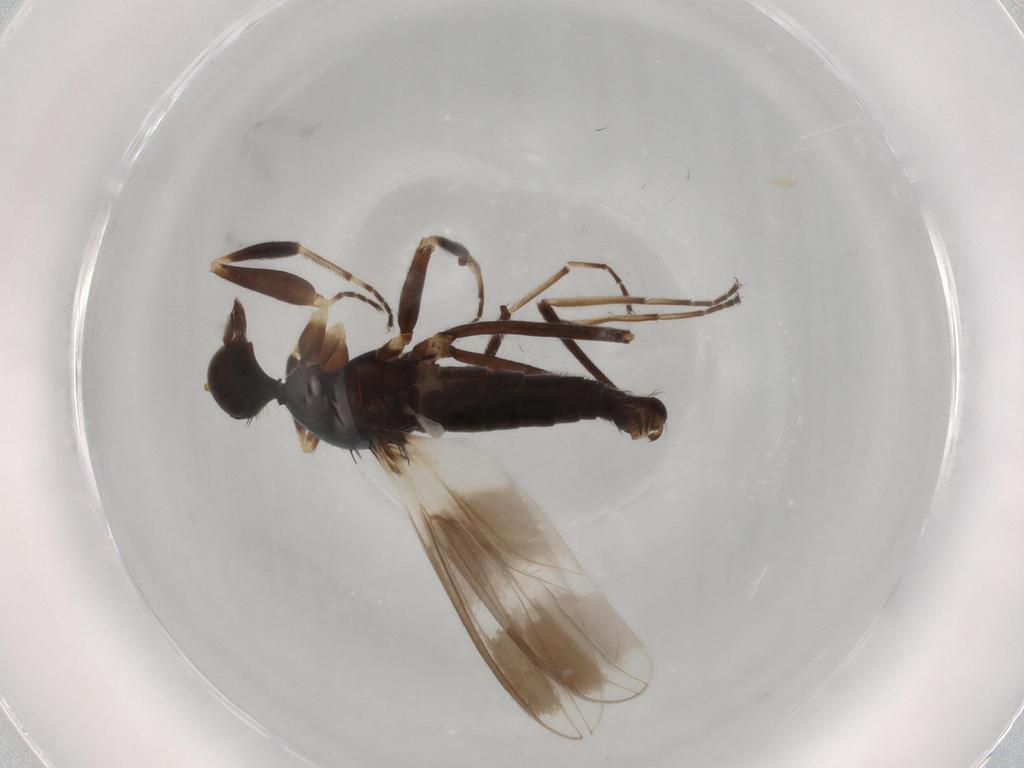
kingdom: Animalia
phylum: Arthropoda
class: Insecta
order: Diptera
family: Hybotidae
